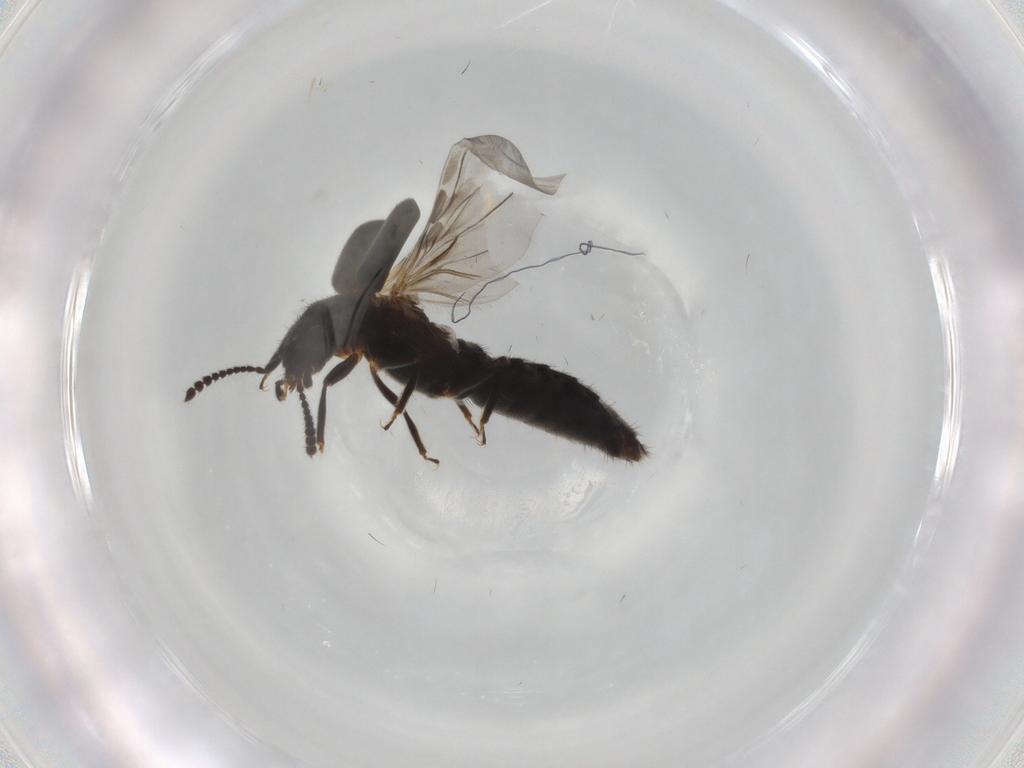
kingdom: Animalia
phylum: Arthropoda
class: Insecta
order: Coleoptera
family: Staphylinidae
